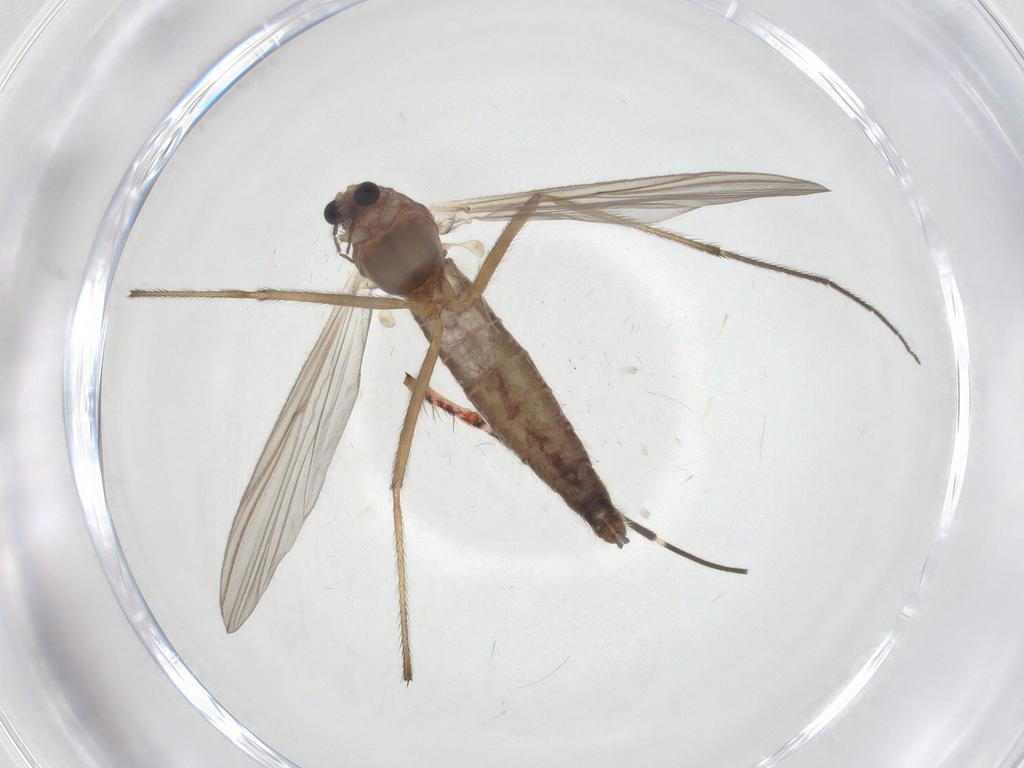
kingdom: Animalia
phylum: Arthropoda
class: Insecta
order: Diptera
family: Chironomidae
